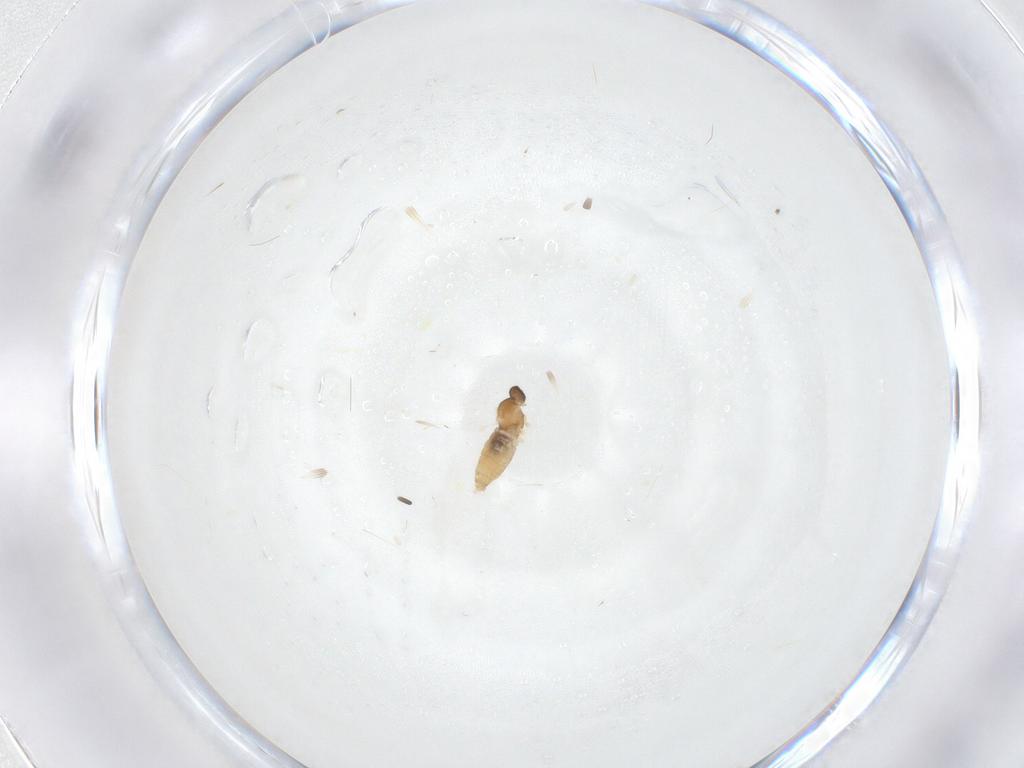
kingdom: Animalia
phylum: Arthropoda
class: Insecta
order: Diptera
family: Cecidomyiidae
